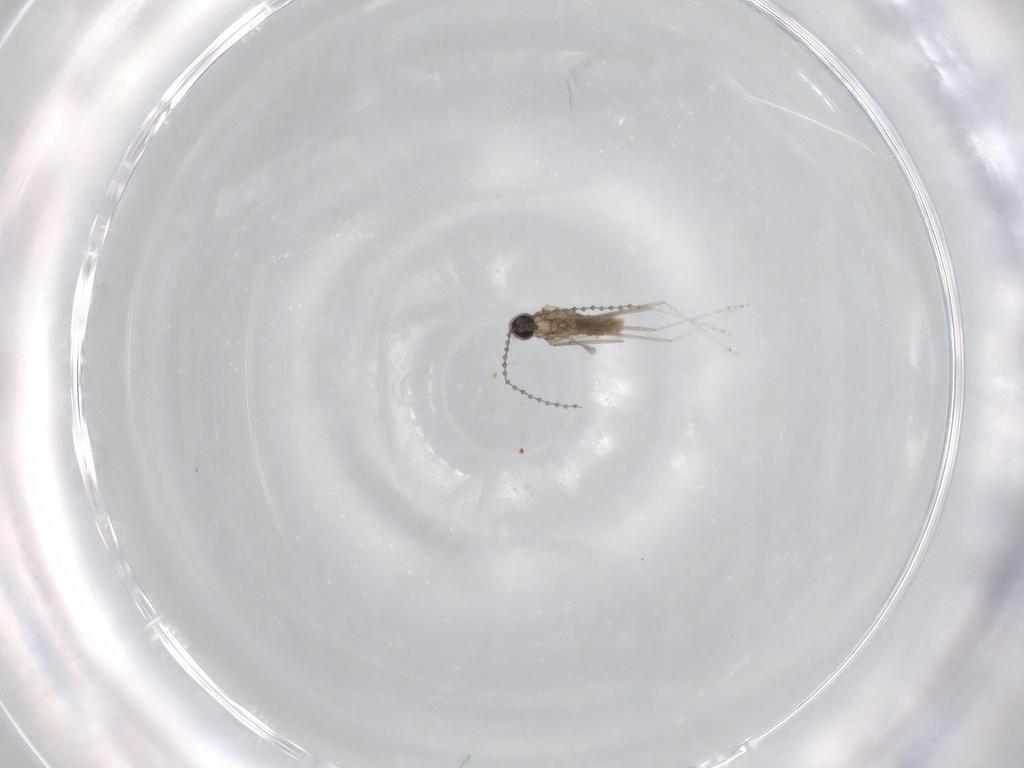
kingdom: Animalia
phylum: Arthropoda
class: Insecta
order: Diptera
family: Cecidomyiidae
